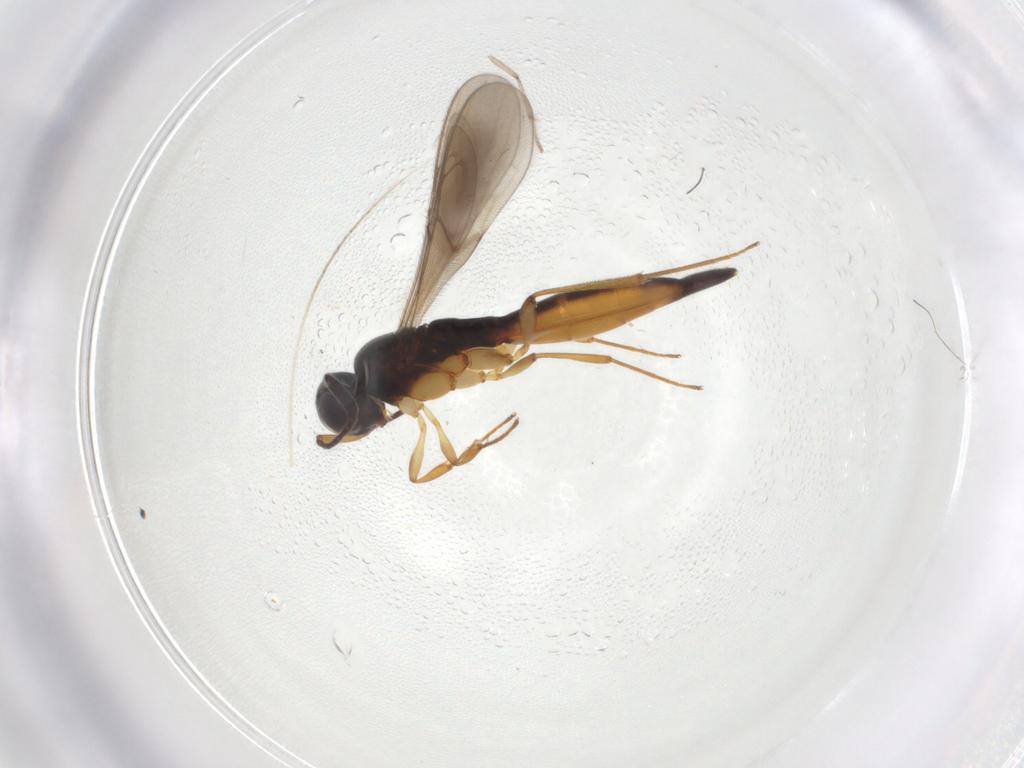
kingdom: Animalia
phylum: Arthropoda
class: Insecta
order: Hymenoptera
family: Scelionidae
